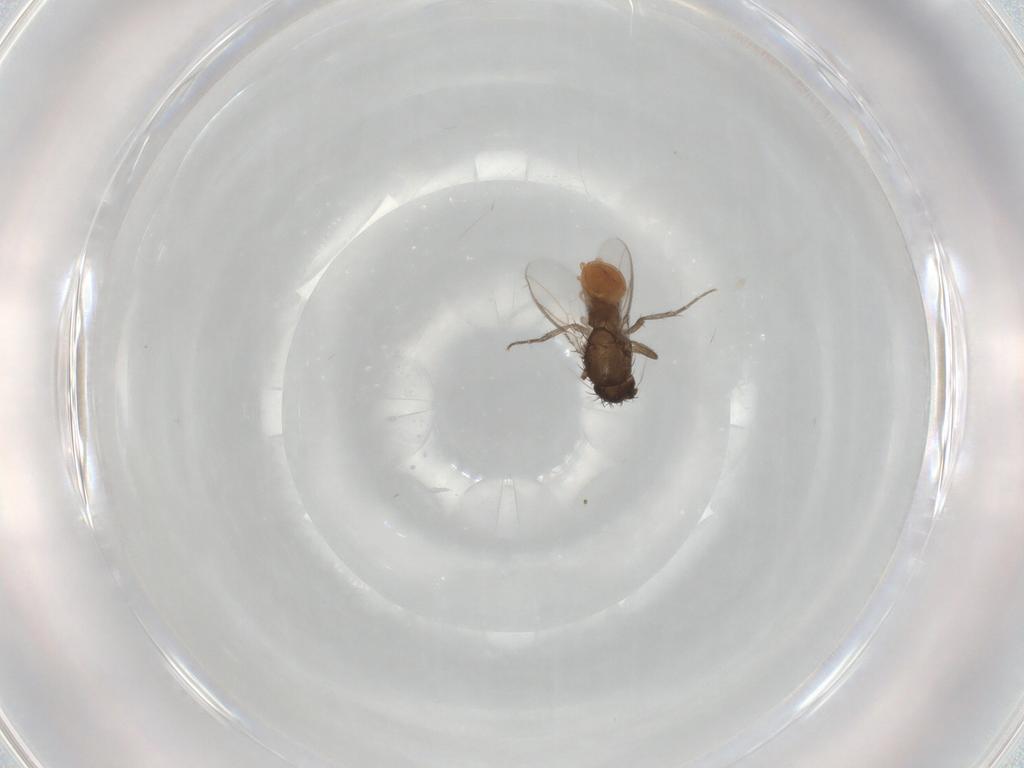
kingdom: Animalia
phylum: Arthropoda
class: Insecta
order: Diptera
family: Sphaeroceridae
